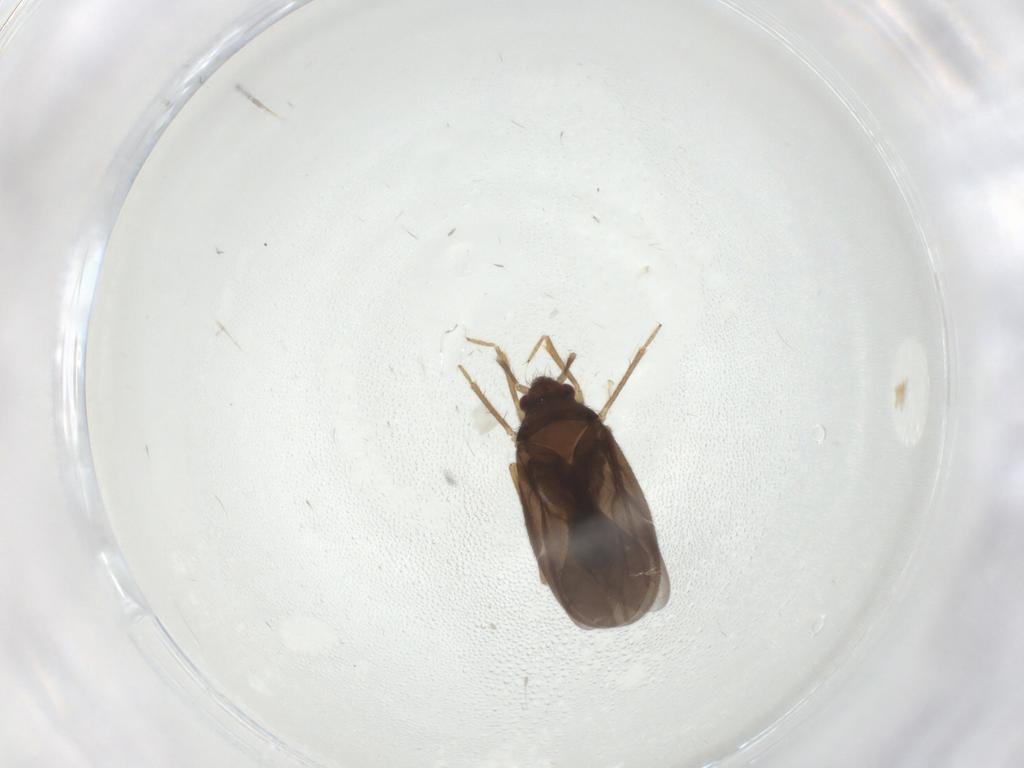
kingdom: Animalia
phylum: Arthropoda
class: Insecta
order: Hemiptera
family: Ceratocombidae
